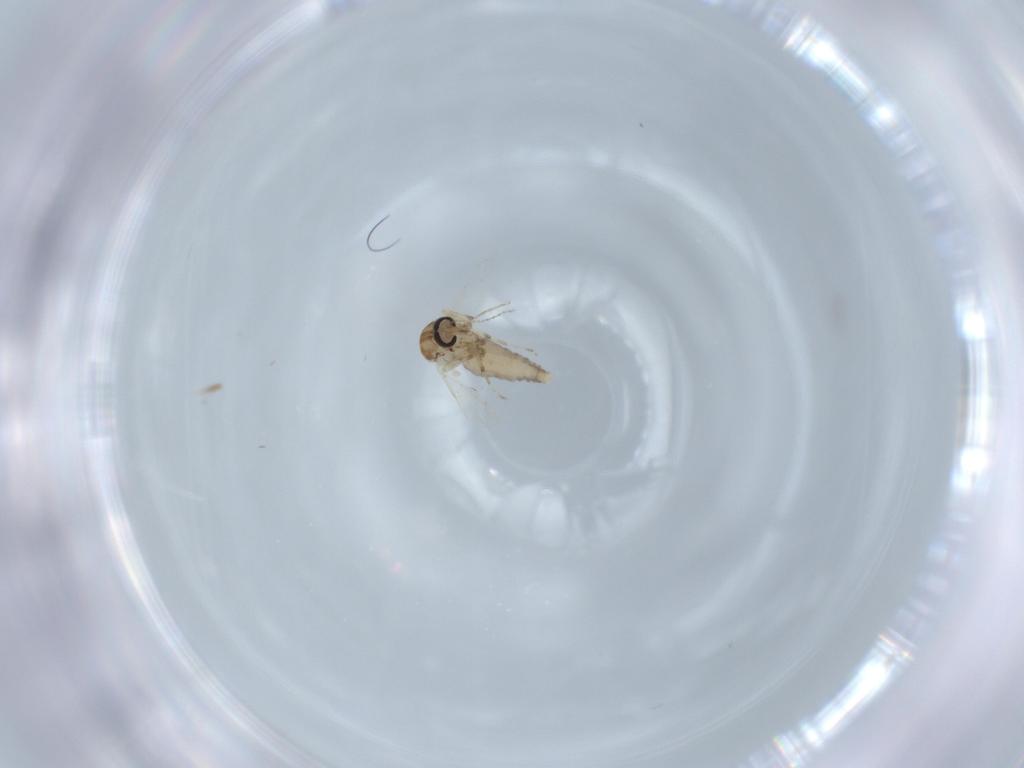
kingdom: Animalia
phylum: Arthropoda
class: Insecta
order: Diptera
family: Ceratopogonidae
